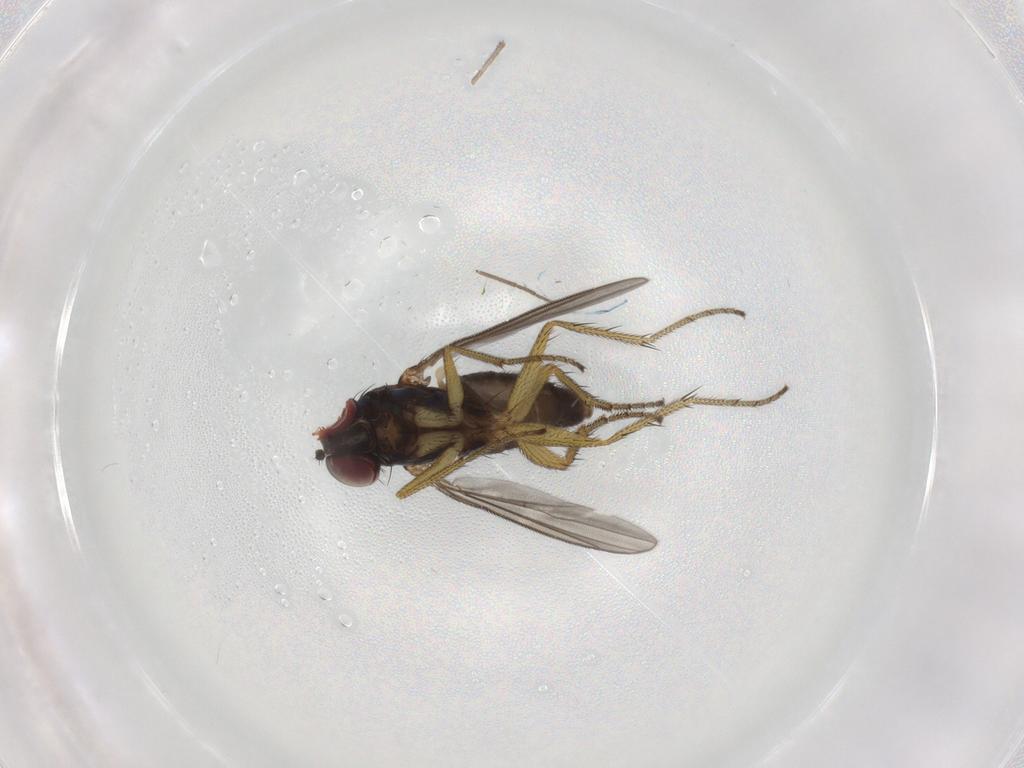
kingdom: Animalia
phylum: Arthropoda
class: Insecta
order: Diptera
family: Dolichopodidae
